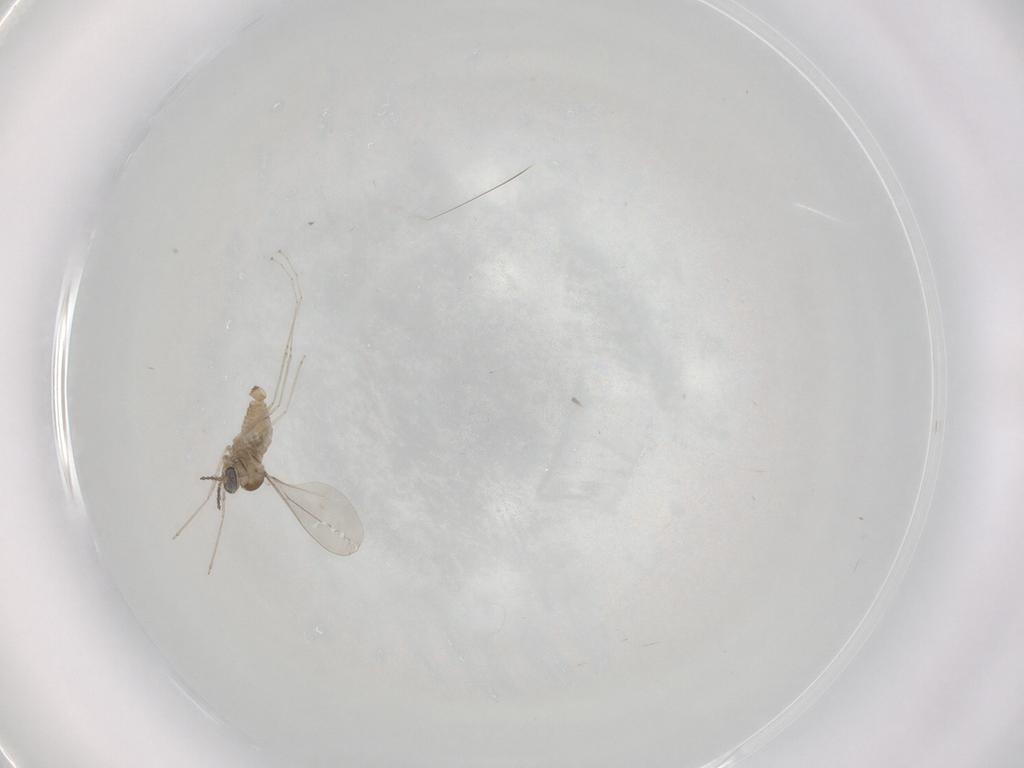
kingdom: Animalia
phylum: Arthropoda
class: Insecta
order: Diptera
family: Cecidomyiidae
